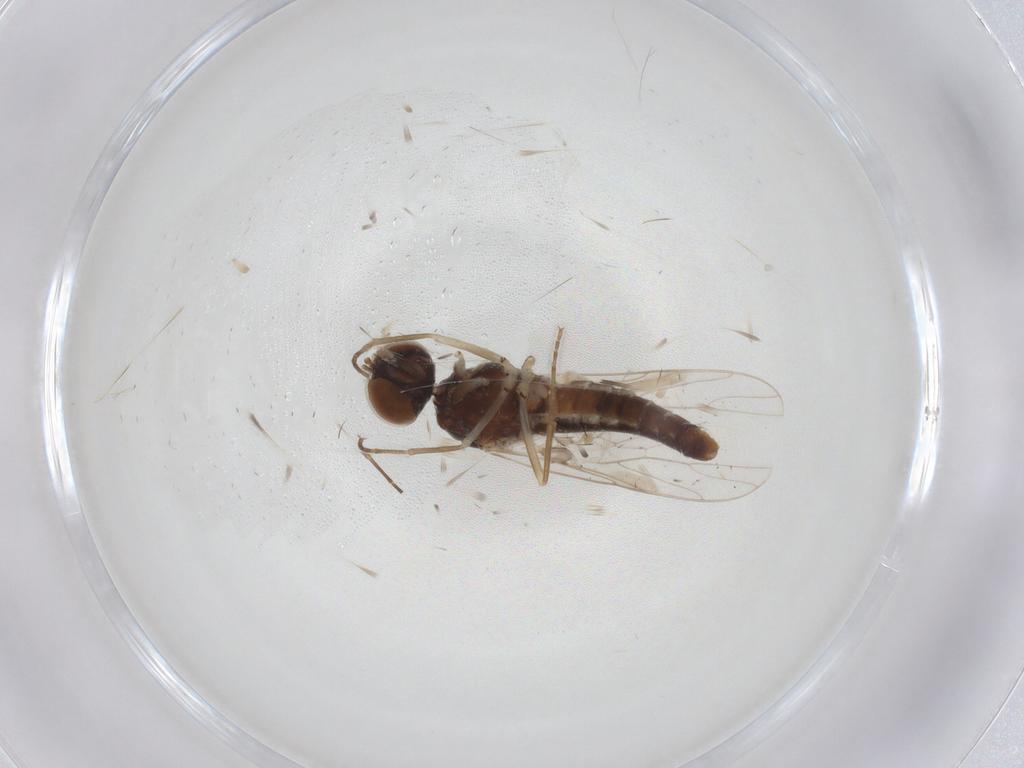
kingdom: Animalia
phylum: Arthropoda
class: Insecta
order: Diptera
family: Scenopinidae
